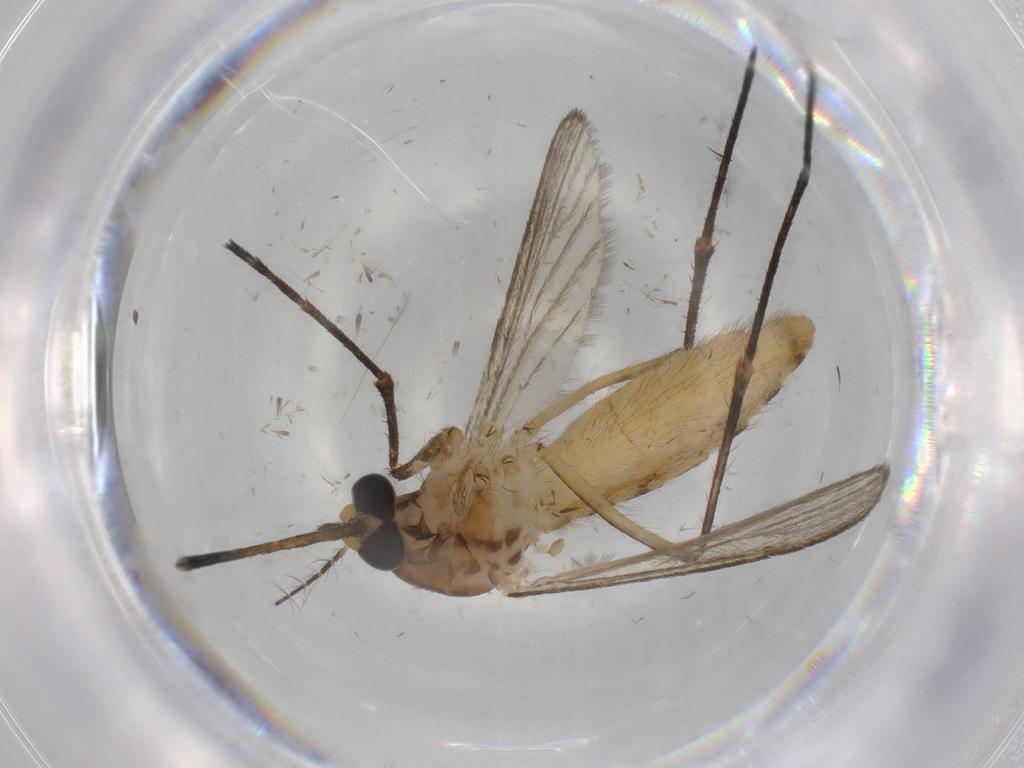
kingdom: Animalia
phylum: Arthropoda
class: Insecta
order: Diptera
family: Culicidae
